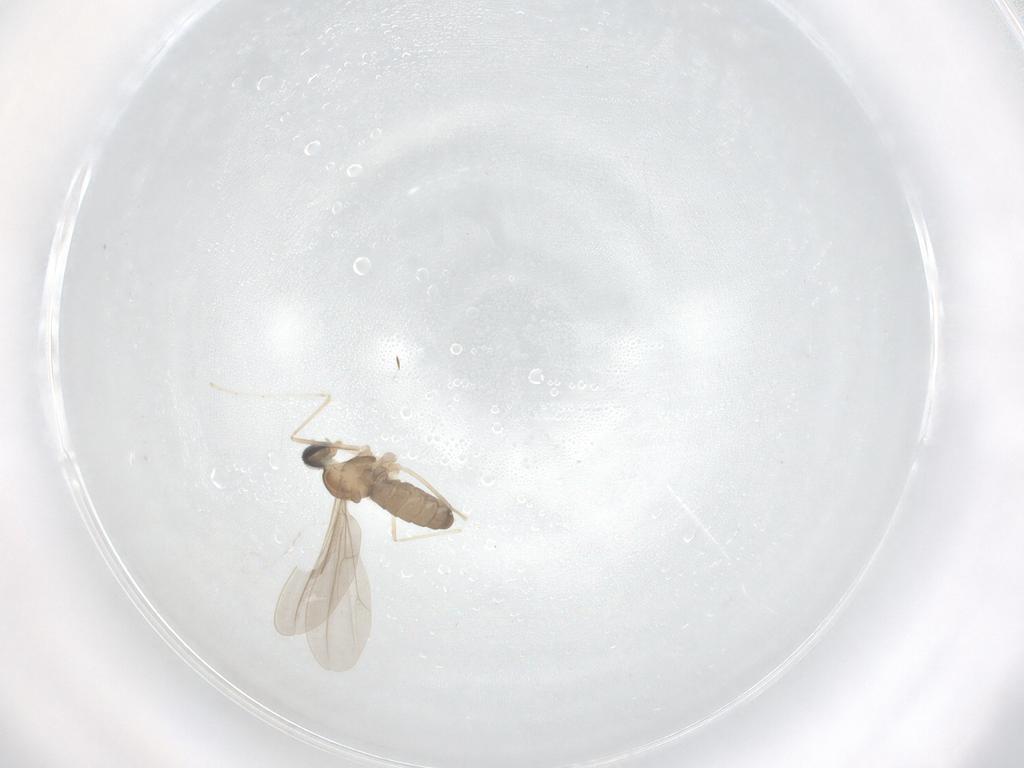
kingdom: Animalia
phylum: Arthropoda
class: Insecta
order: Diptera
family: Cecidomyiidae
